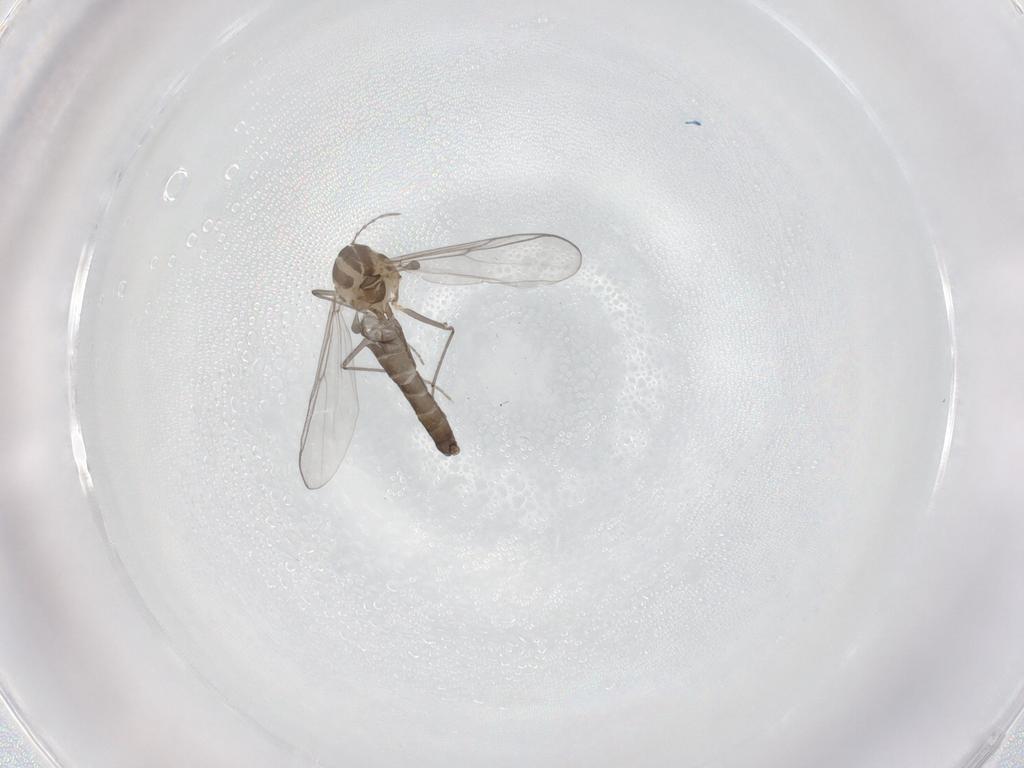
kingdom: Animalia
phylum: Arthropoda
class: Insecta
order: Diptera
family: Chironomidae
